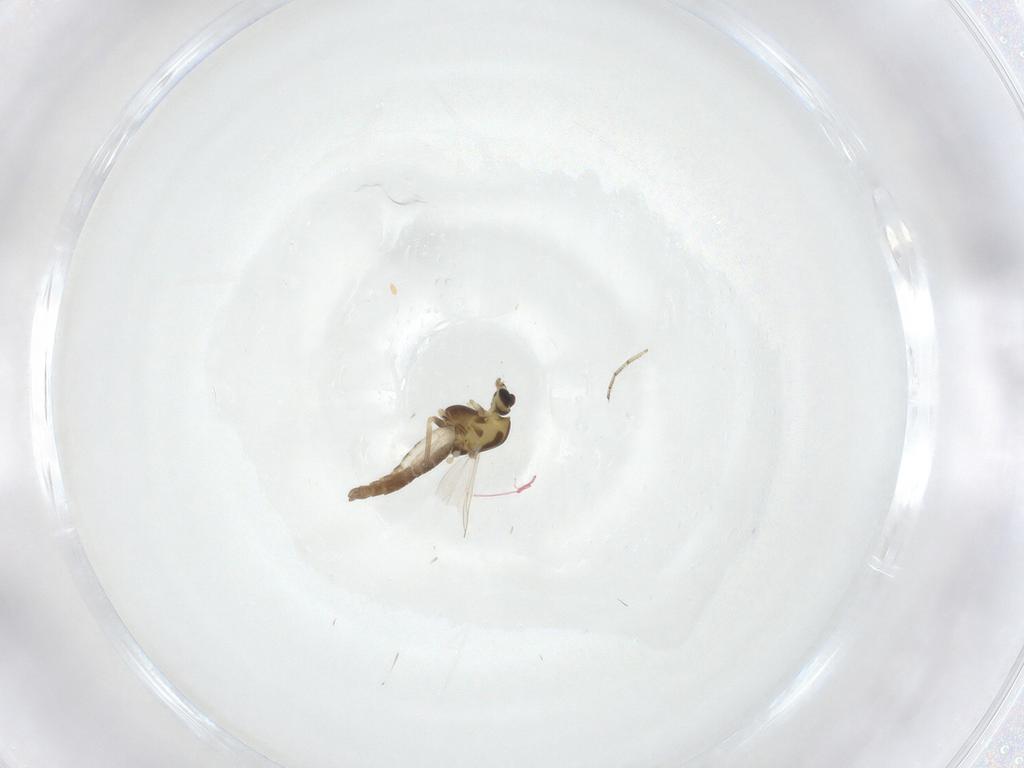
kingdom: Animalia
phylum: Arthropoda
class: Insecta
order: Diptera
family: Chironomidae
